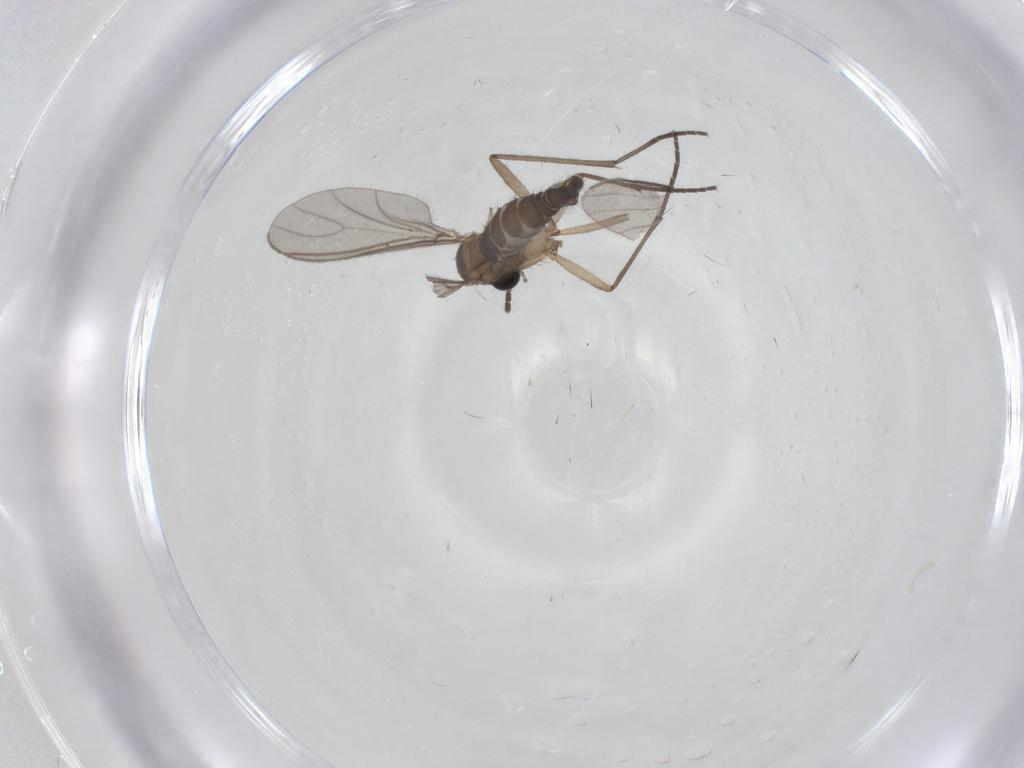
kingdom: Animalia
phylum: Arthropoda
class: Insecta
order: Diptera
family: Sciaridae
